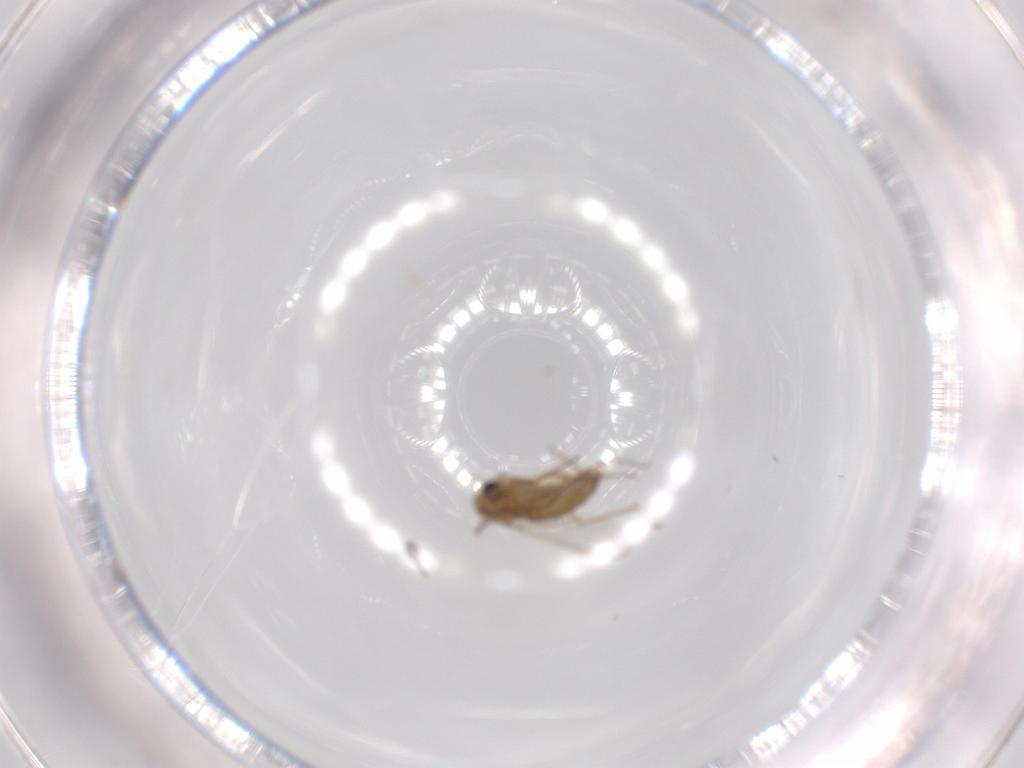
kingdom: Animalia
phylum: Arthropoda
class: Insecta
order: Diptera
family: Chironomidae
